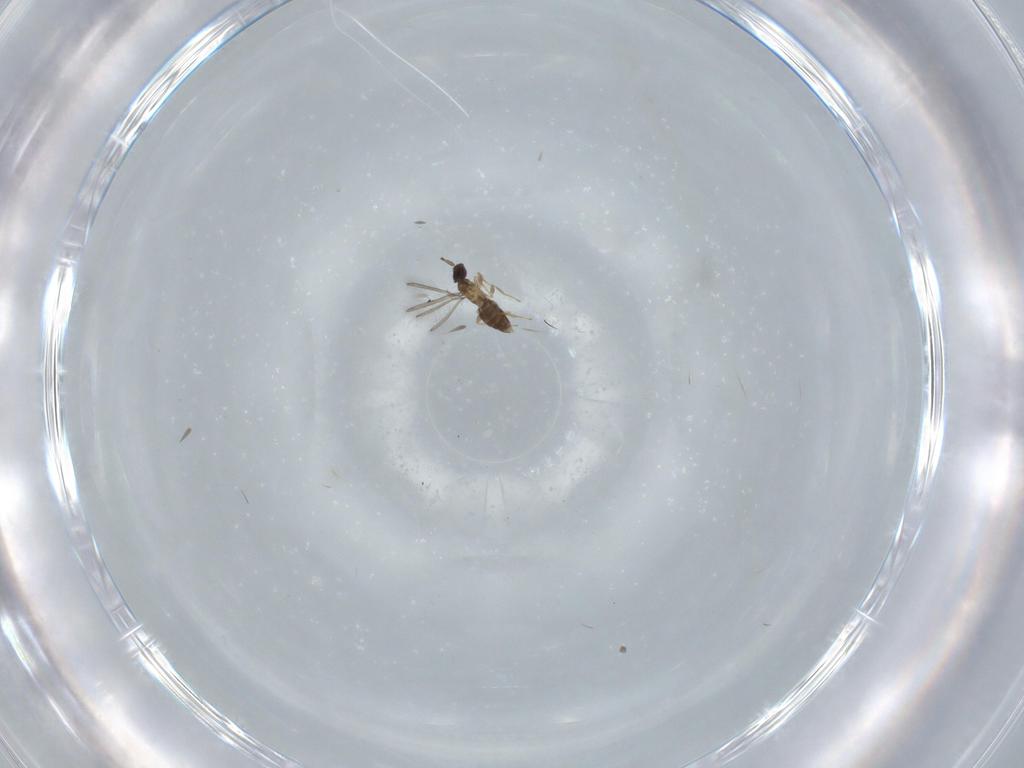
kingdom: Animalia
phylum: Arthropoda
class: Insecta
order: Hymenoptera
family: Mymaridae
